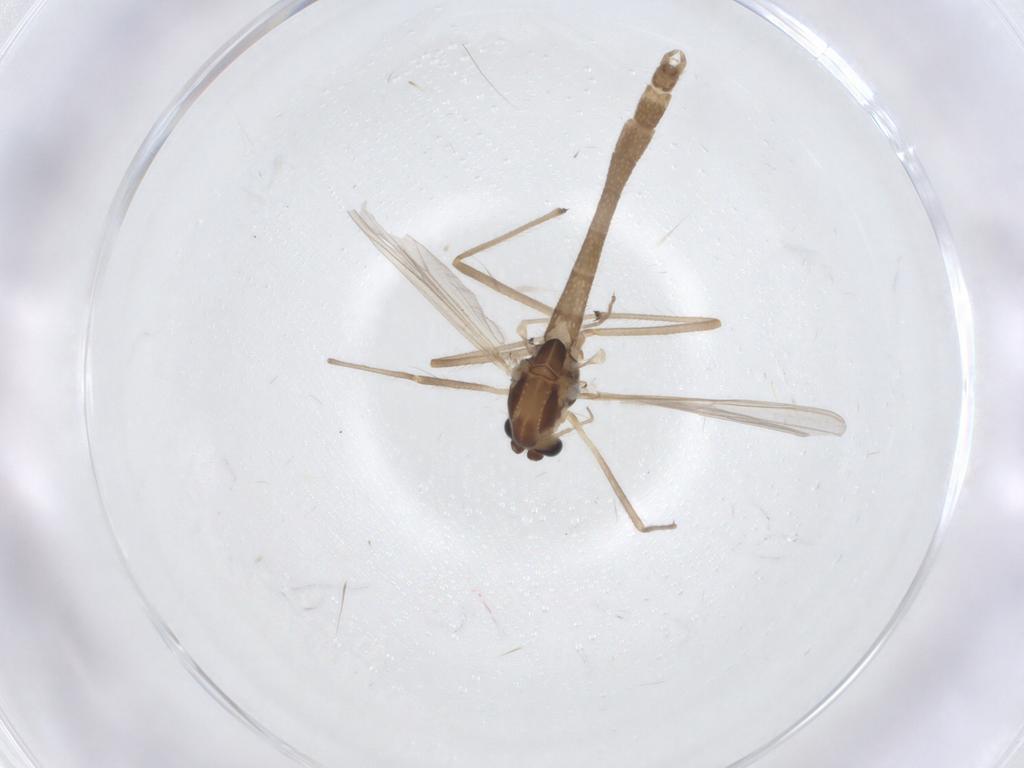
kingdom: Animalia
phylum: Arthropoda
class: Insecta
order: Diptera
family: Chironomidae
